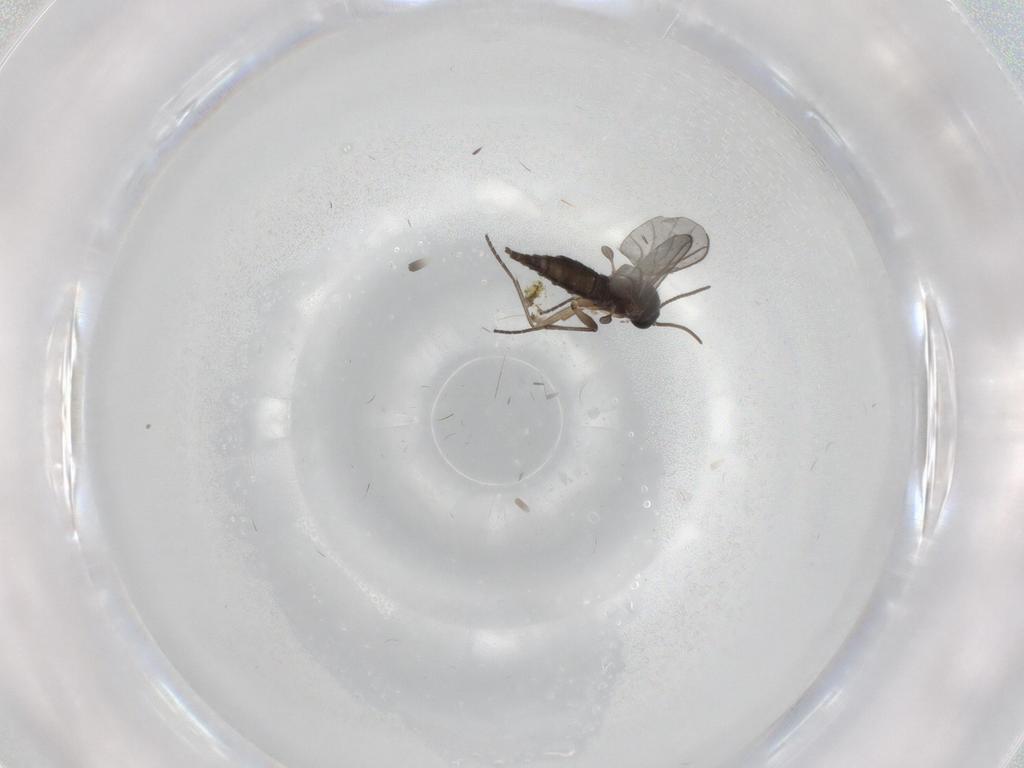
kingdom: Animalia
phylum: Arthropoda
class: Insecta
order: Diptera
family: Sciaridae
